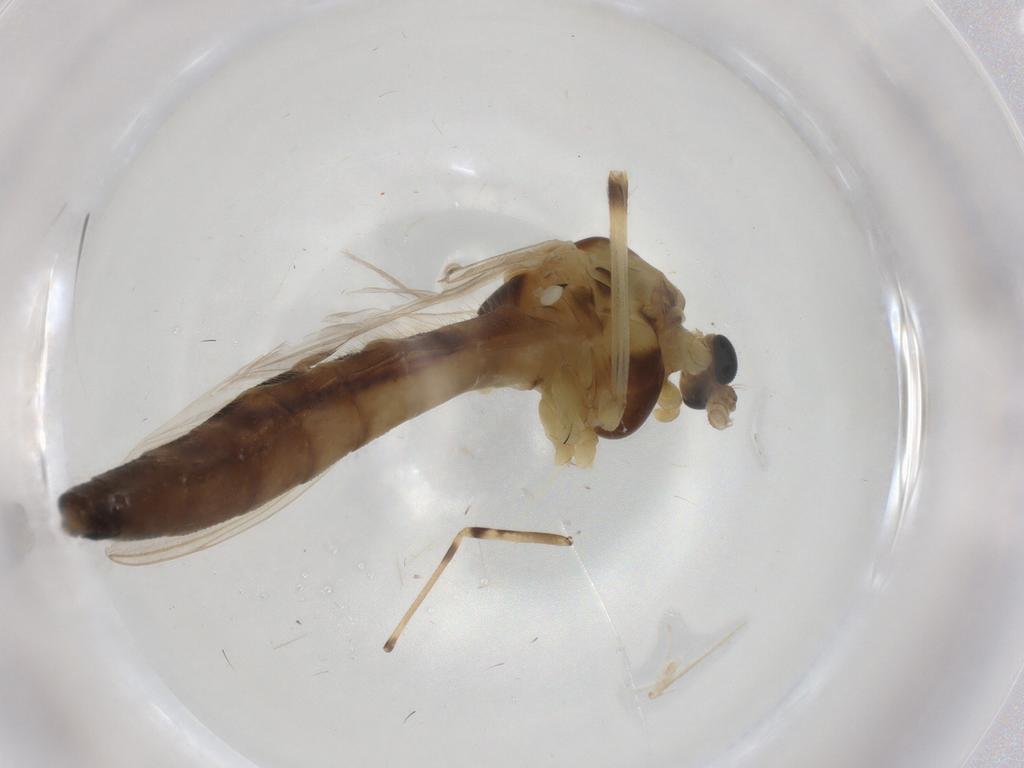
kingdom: Animalia
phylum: Arthropoda
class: Insecta
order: Diptera
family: Chironomidae
